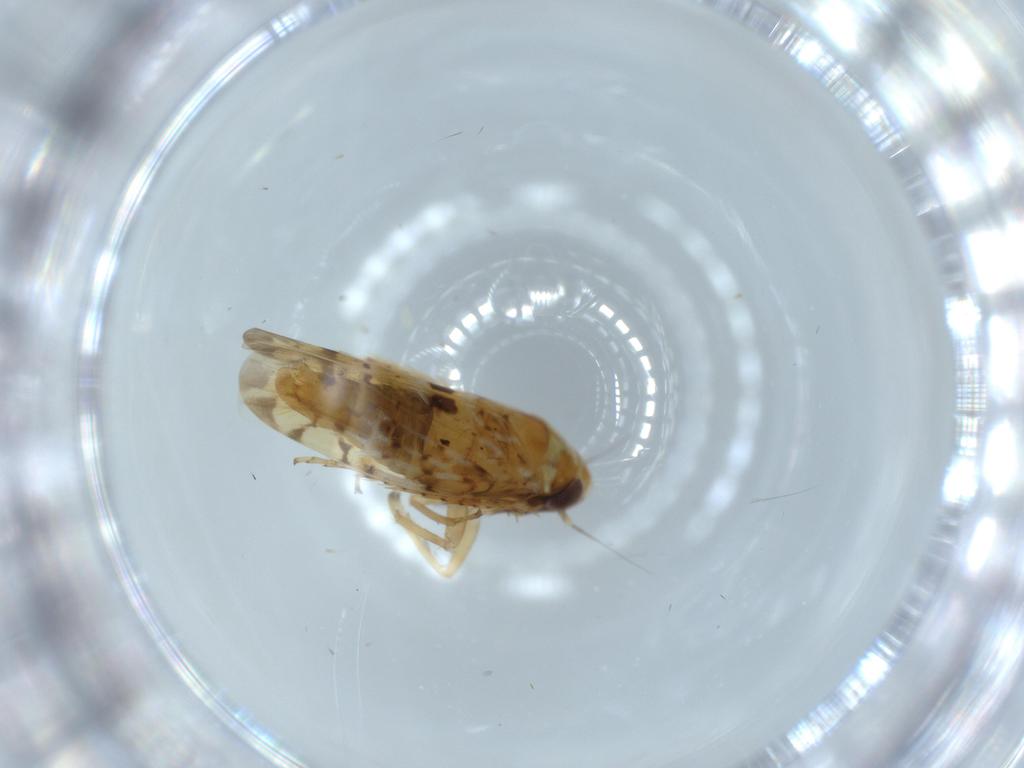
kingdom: Animalia
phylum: Arthropoda
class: Insecta
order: Hemiptera
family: Cicadellidae
